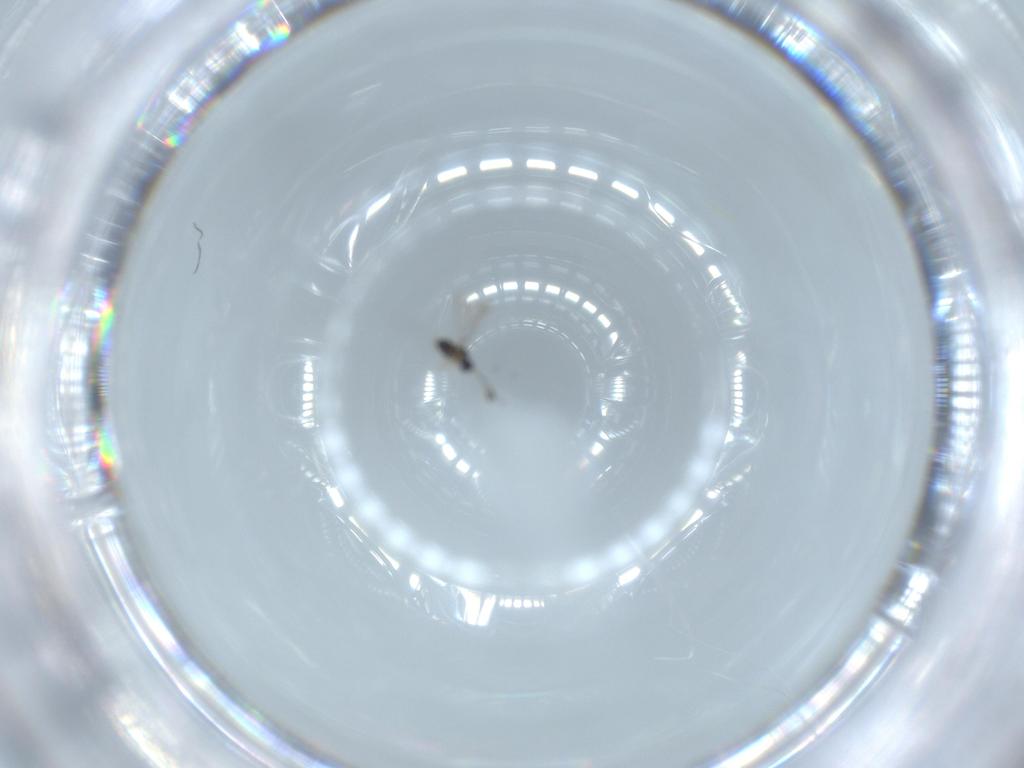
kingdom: Animalia
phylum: Arthropoda
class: Insecta
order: Hymenoptera
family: Mymaridae
